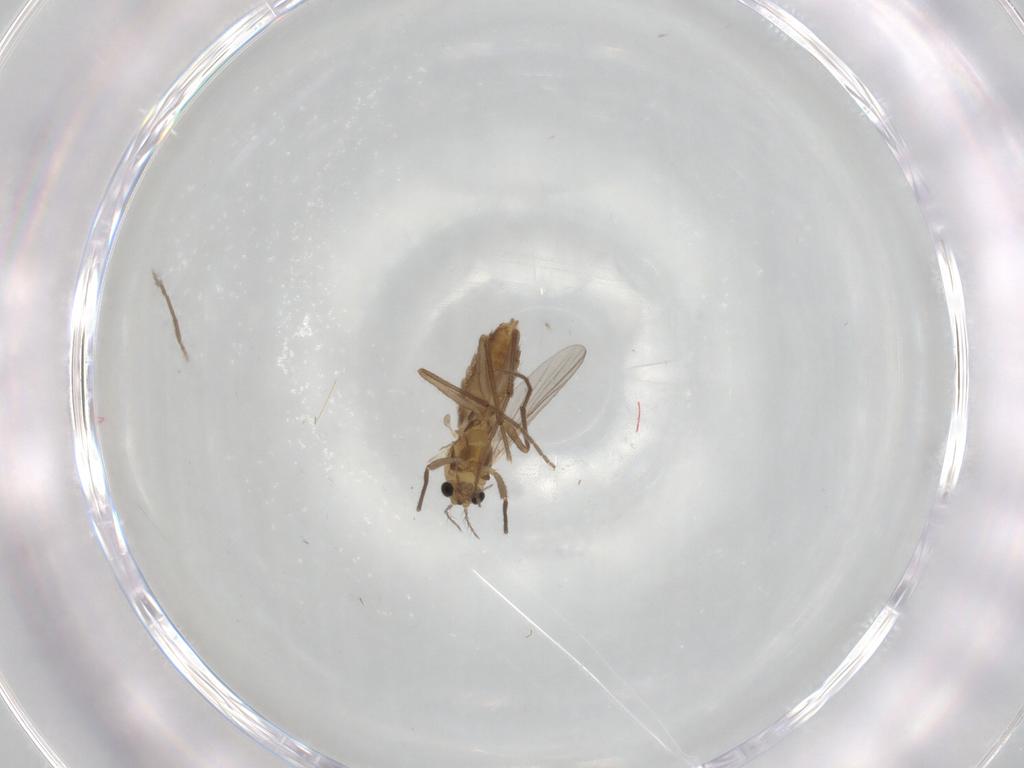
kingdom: Animalia
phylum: Arthropoda
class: Insecta
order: Diptera
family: Chironomidae
